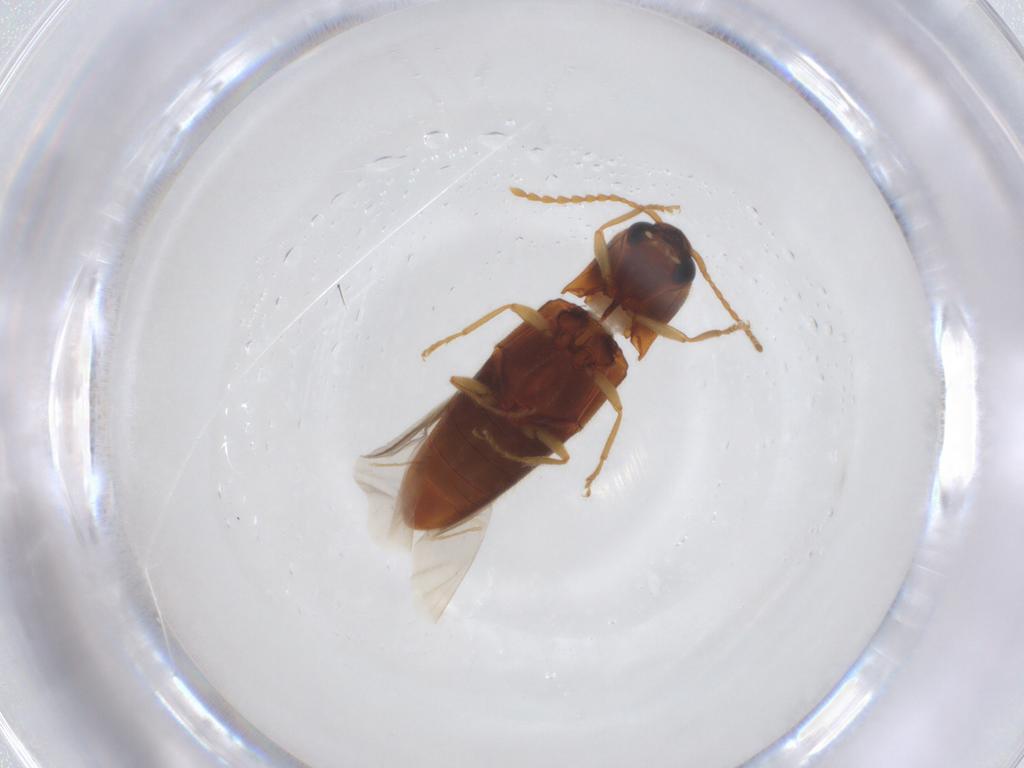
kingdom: Animalia
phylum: Arthropoda
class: Insecta
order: Coleoptera
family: Elateridae
